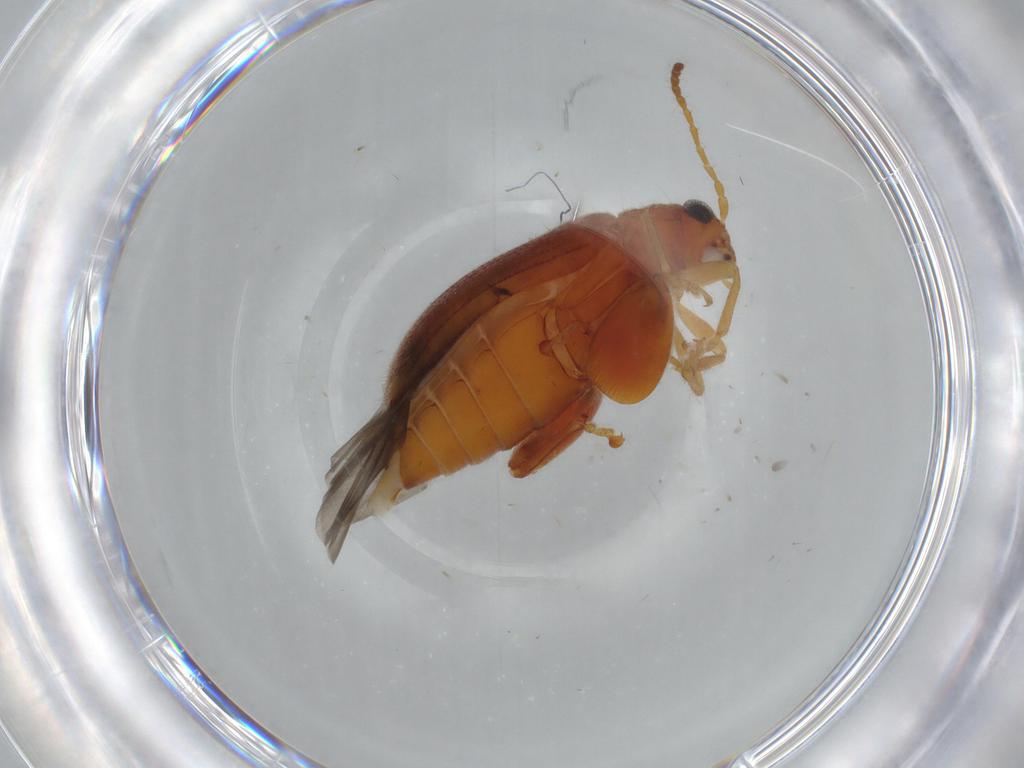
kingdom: Animalia
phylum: Arthropoda
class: Insecta
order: Coleoptera
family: Chrysomelidae
